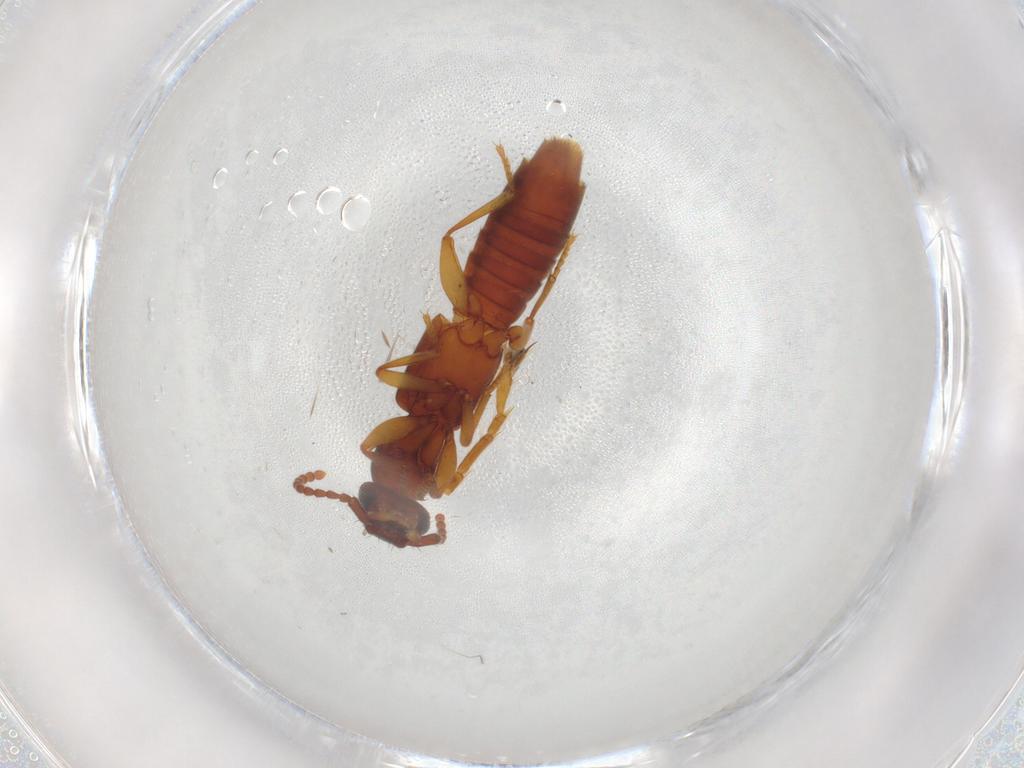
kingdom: Animalia
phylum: Arthropoda
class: Insecta
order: Coleoptera
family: Staphylinidae
